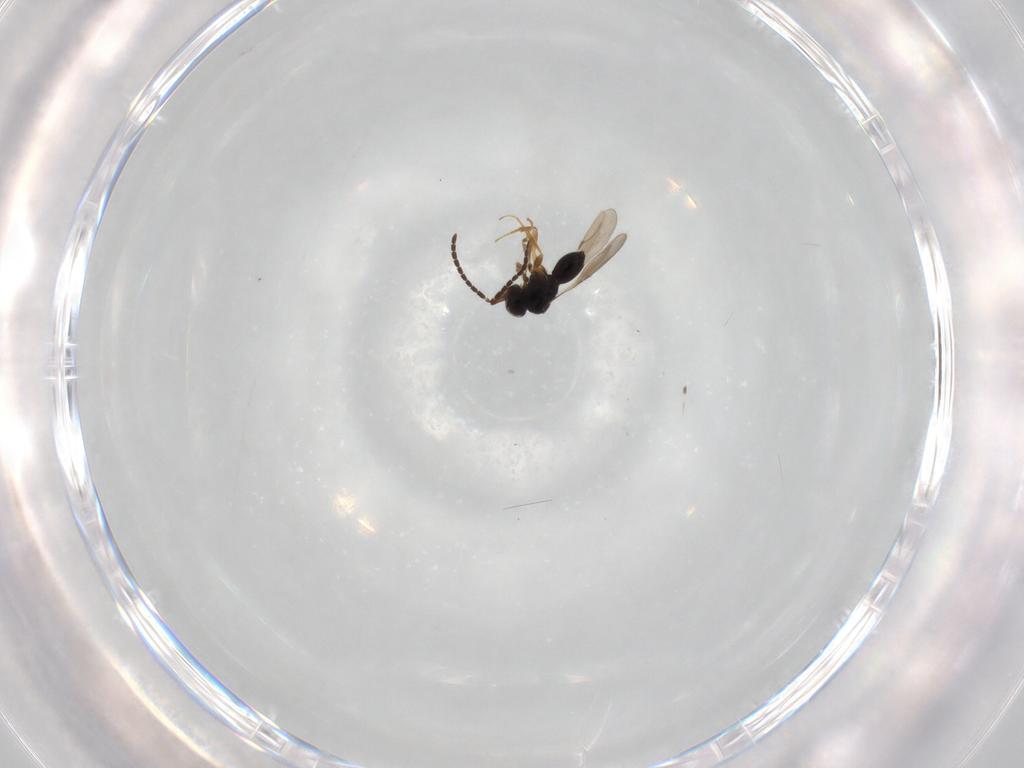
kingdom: Animalia
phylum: Arthropoda
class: Insecta
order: Hymenoptera
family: Ceraphronidae
